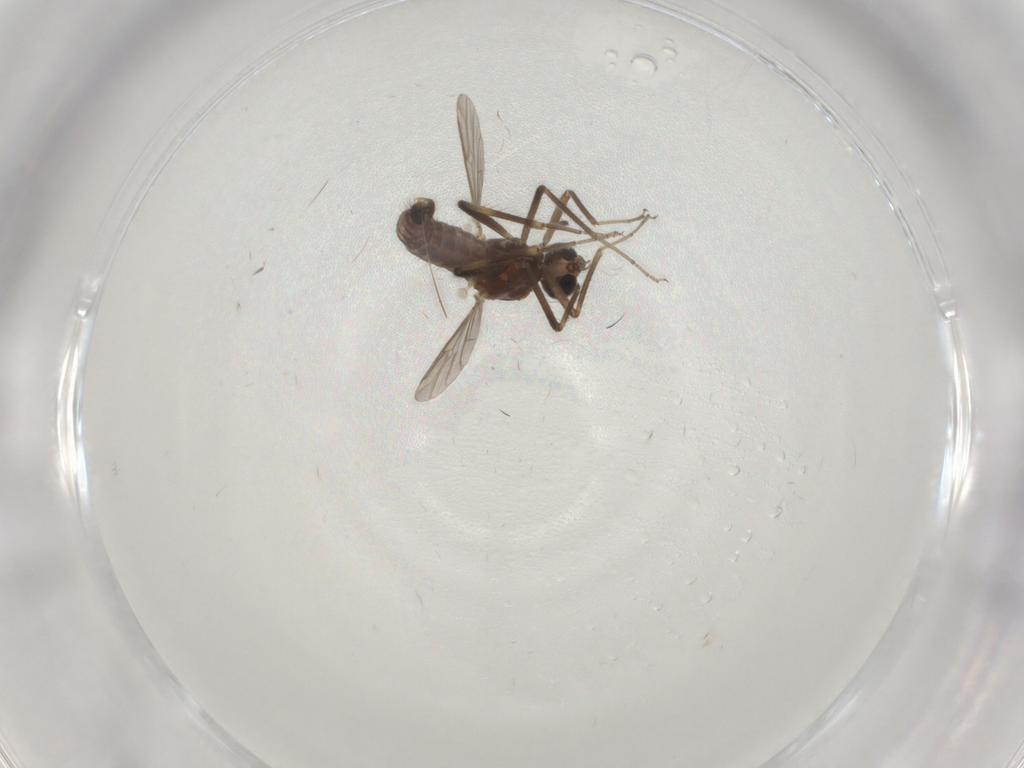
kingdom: Animalia
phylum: Arthropoda
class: Insecta
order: Diptera
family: Ceratopogonidae
